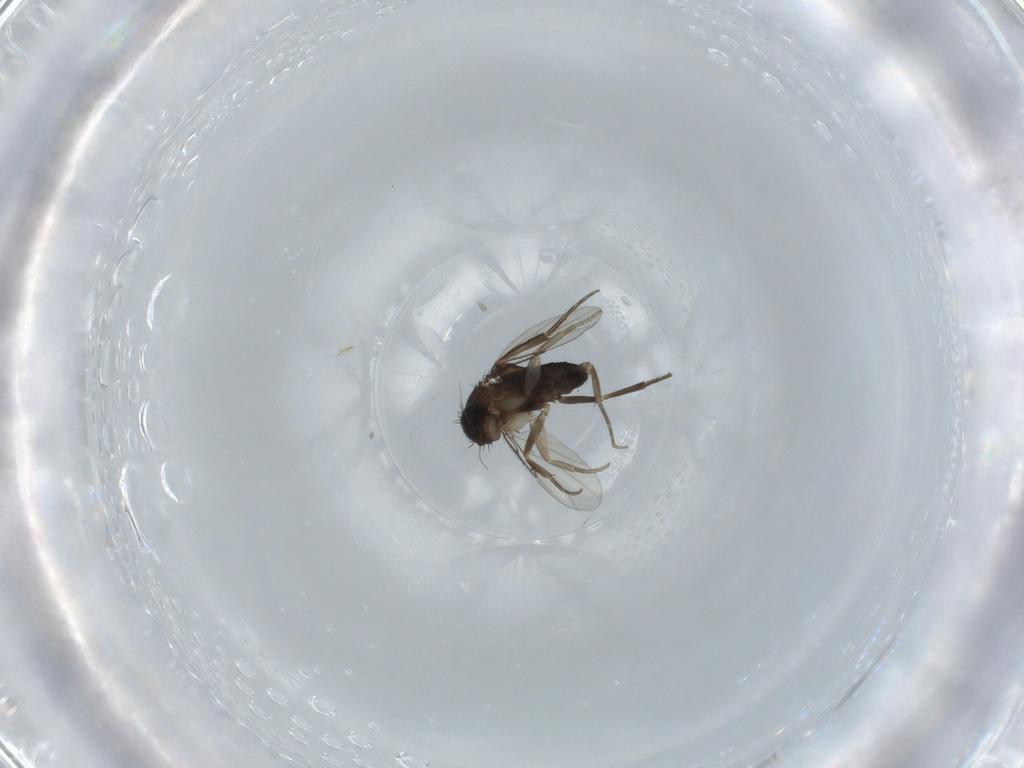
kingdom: Animalia
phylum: Arthropoda
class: Insecta
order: Diptera
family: Phoridae
